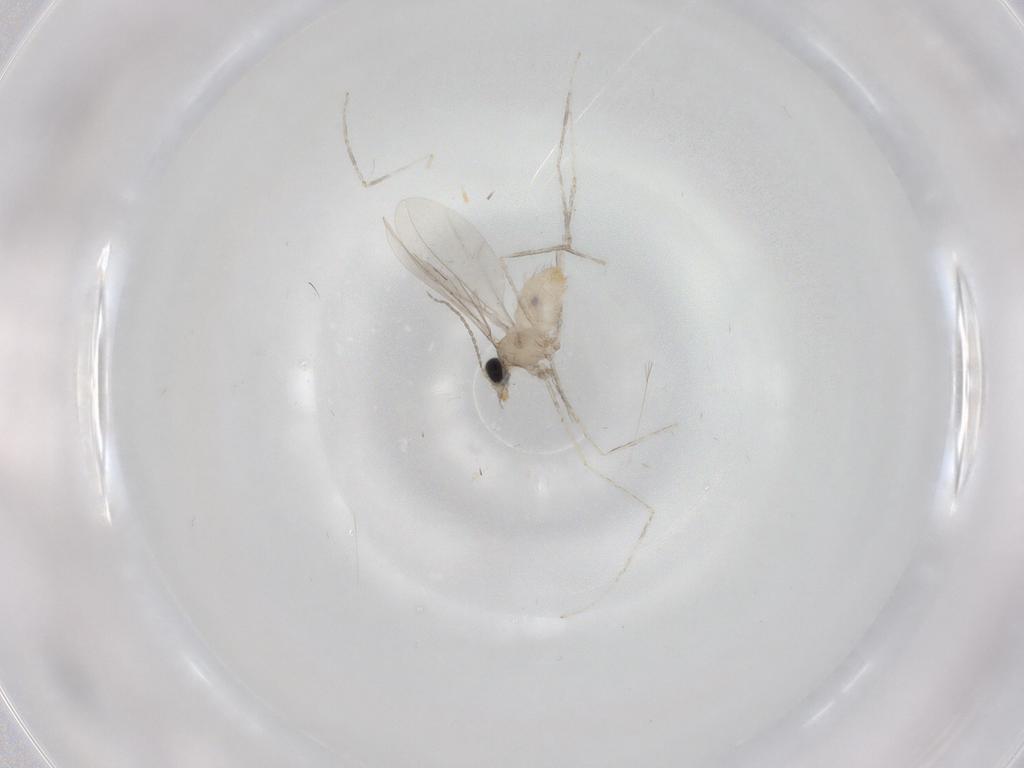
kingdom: Animalia
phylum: Arthropoda
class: Insecta
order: Diptera
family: Cecidomyiidae
